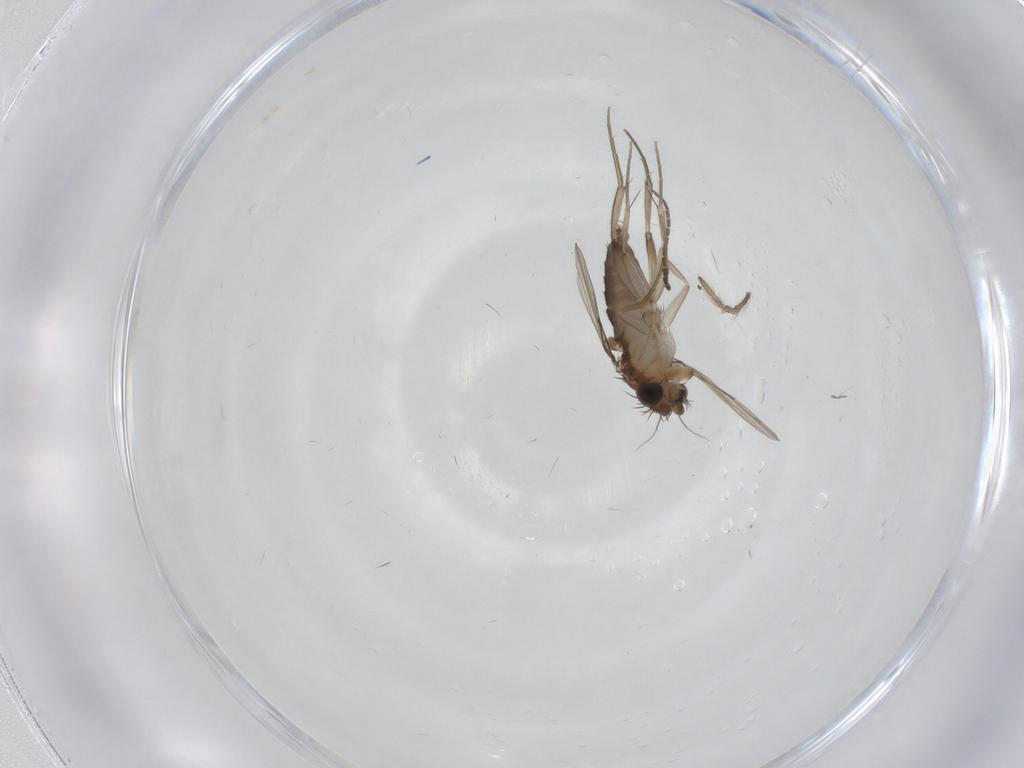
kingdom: Animalia
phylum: Arthropoda
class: Insecta
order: Diptera
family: Phoridae
